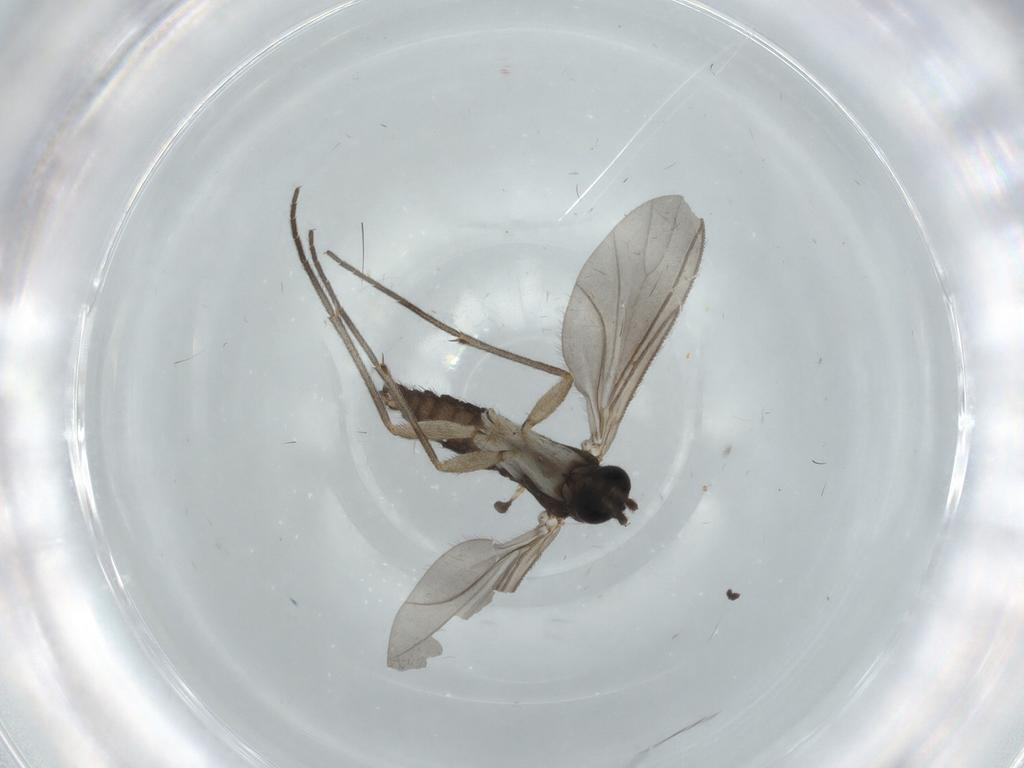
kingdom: Animalia
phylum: Arthropoda
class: Insecta
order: Diptera
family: Sciaridae
